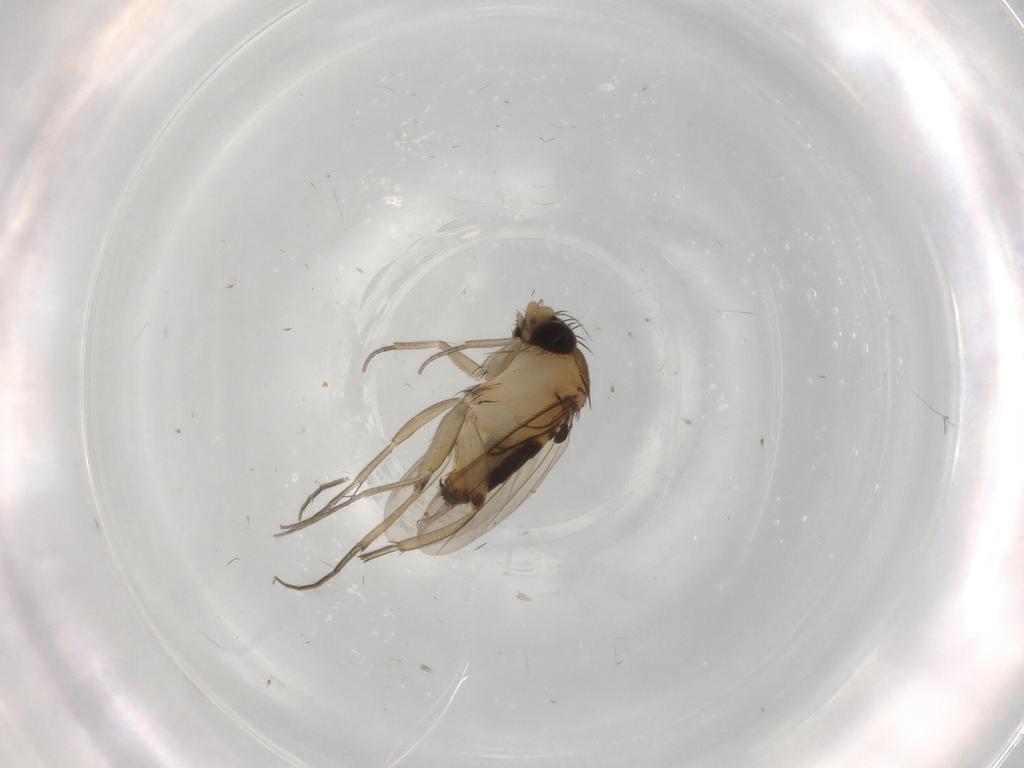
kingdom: Animalia
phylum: Arthropoda
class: Insecta
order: Diptera
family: Phoridae
